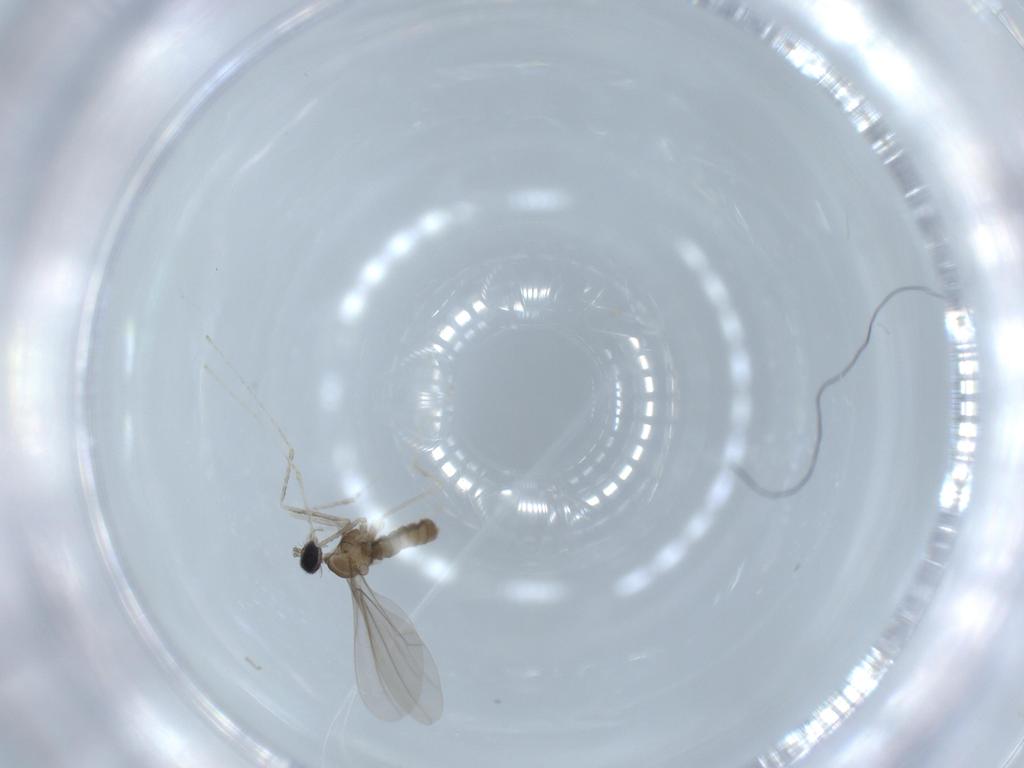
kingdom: Animalia
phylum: Arthropoda
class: Insecta
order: Diptera
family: Cecidomyiidae
